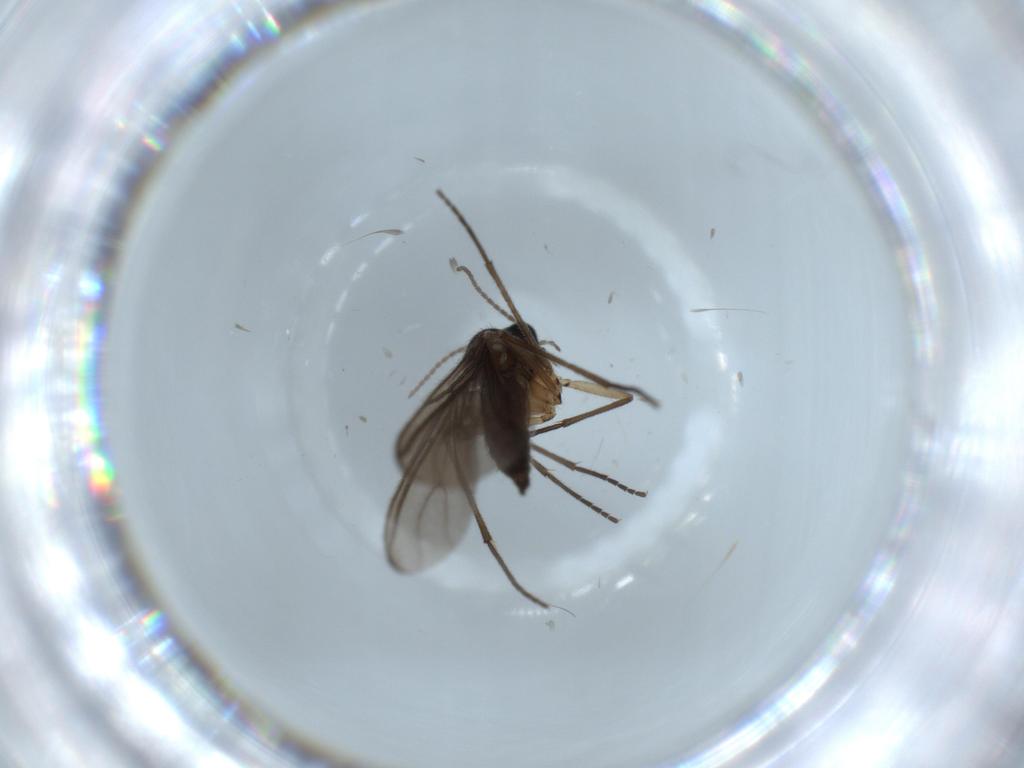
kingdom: Animalia
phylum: Arthropoda
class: Insecta
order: Diptera
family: Sciaridae
